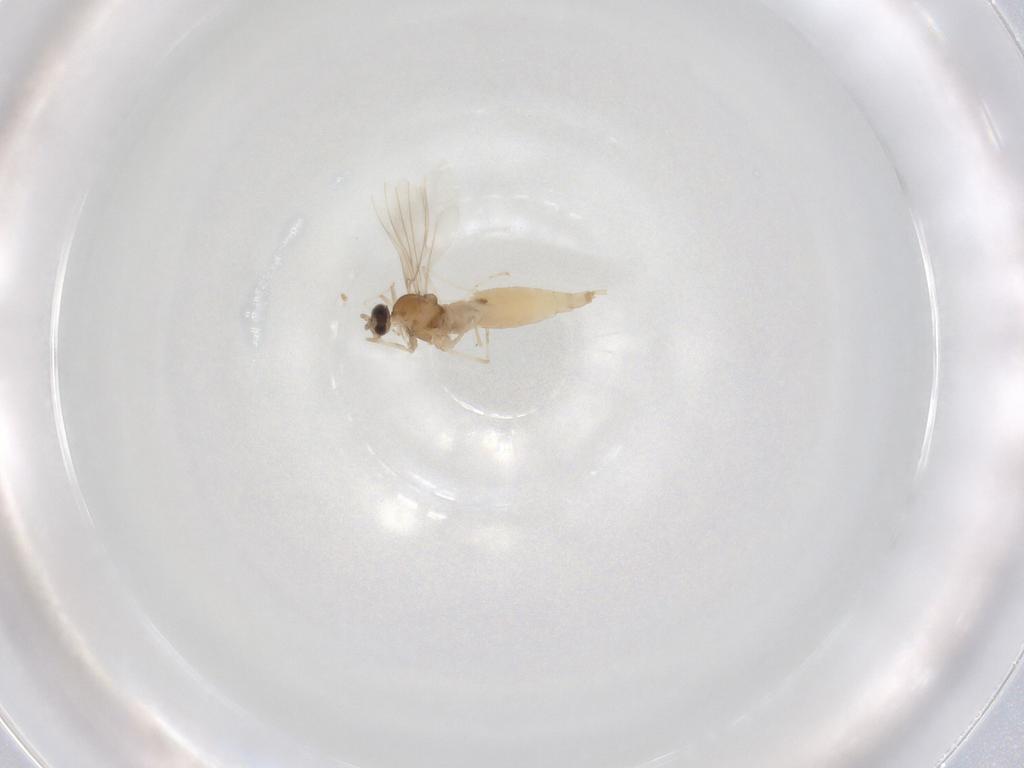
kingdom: Animalia
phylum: Arthropoda
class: Insecta
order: Diptera
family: Cecidomyiidae
